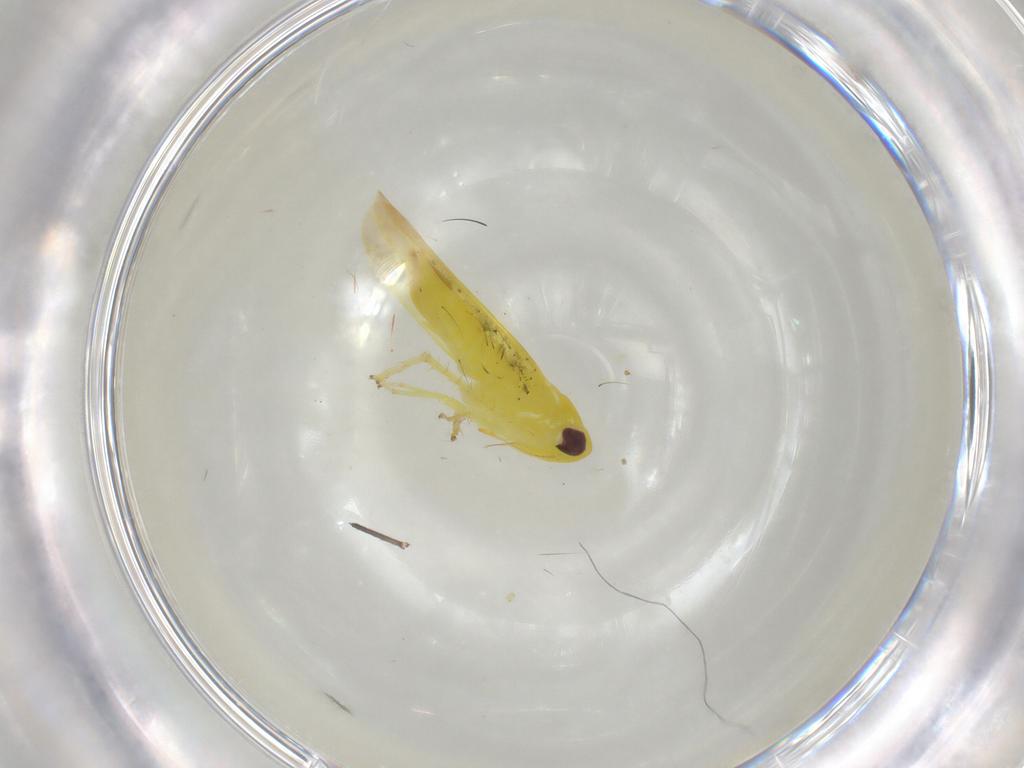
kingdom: Animalia
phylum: Arthropoda
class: Insecta
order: Hemiptera
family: Cicadellidae
